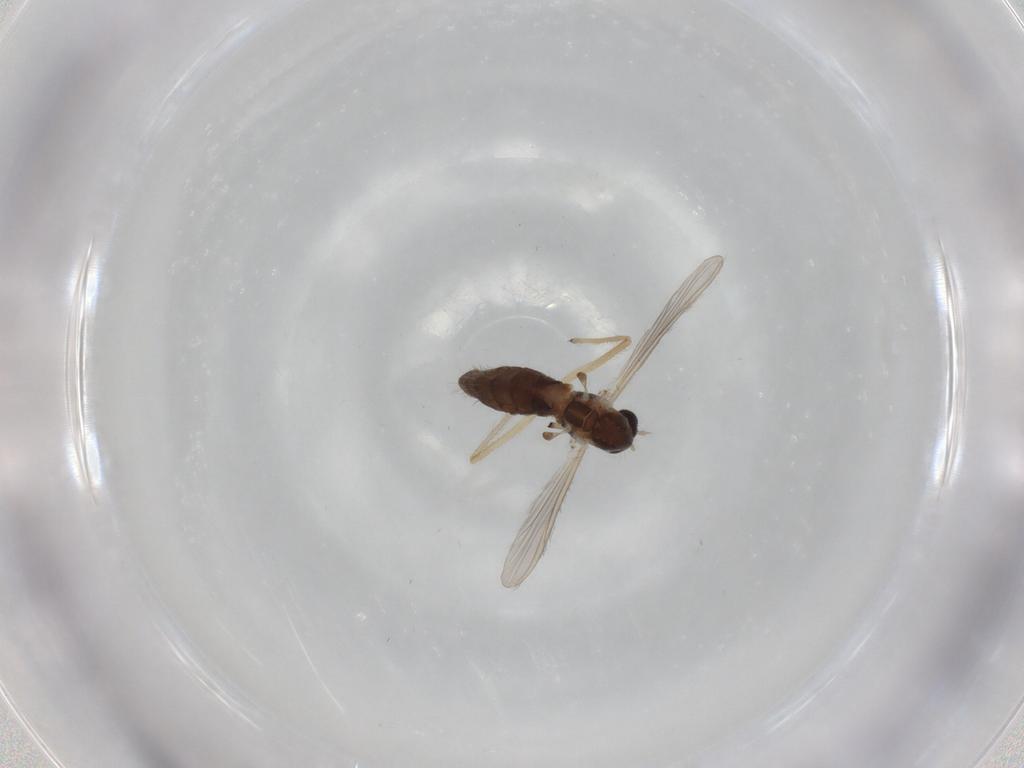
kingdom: Animalia
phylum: Arthropoda
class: Insecta
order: Diptera
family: Chironomidae
